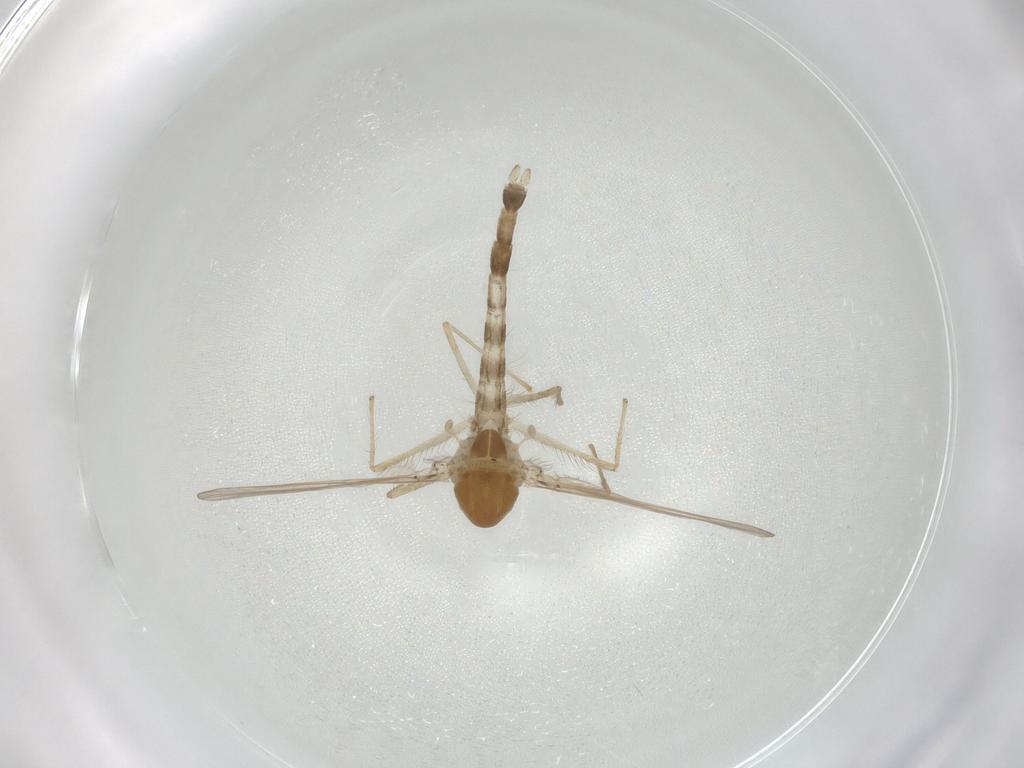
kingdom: Animalia
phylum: Arthropoda
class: Insecta
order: Diptera
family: Chironomidae
